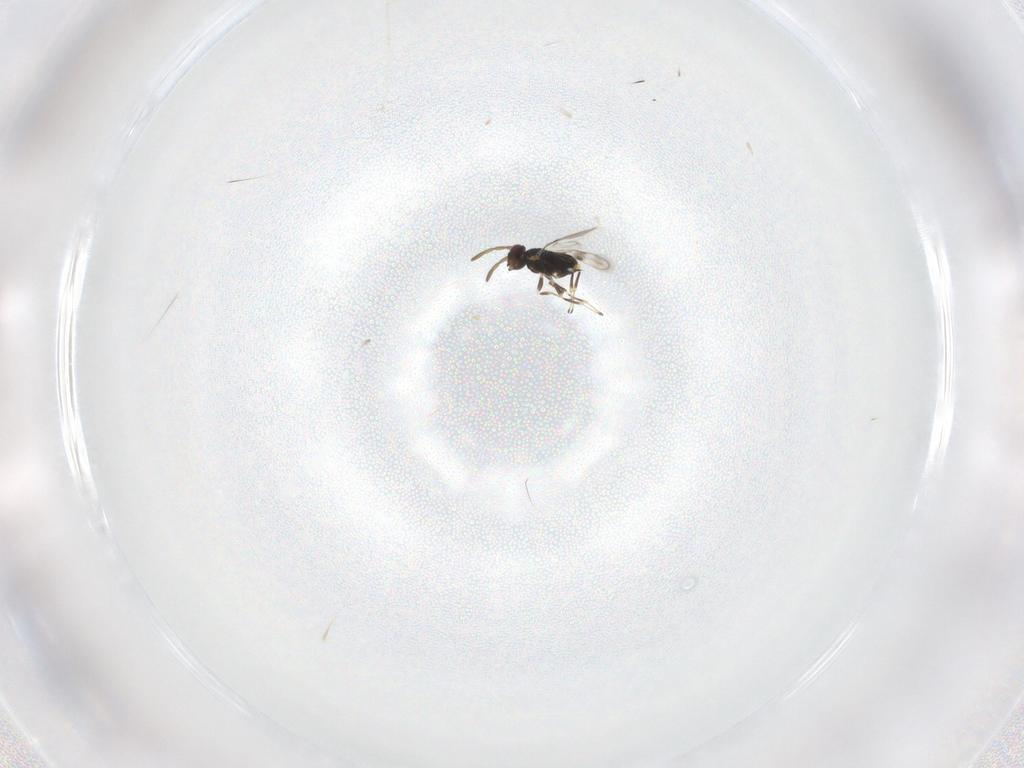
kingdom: Animalia
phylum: Arthropoda
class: Insecta
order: Hymenoptera
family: Azotidae
